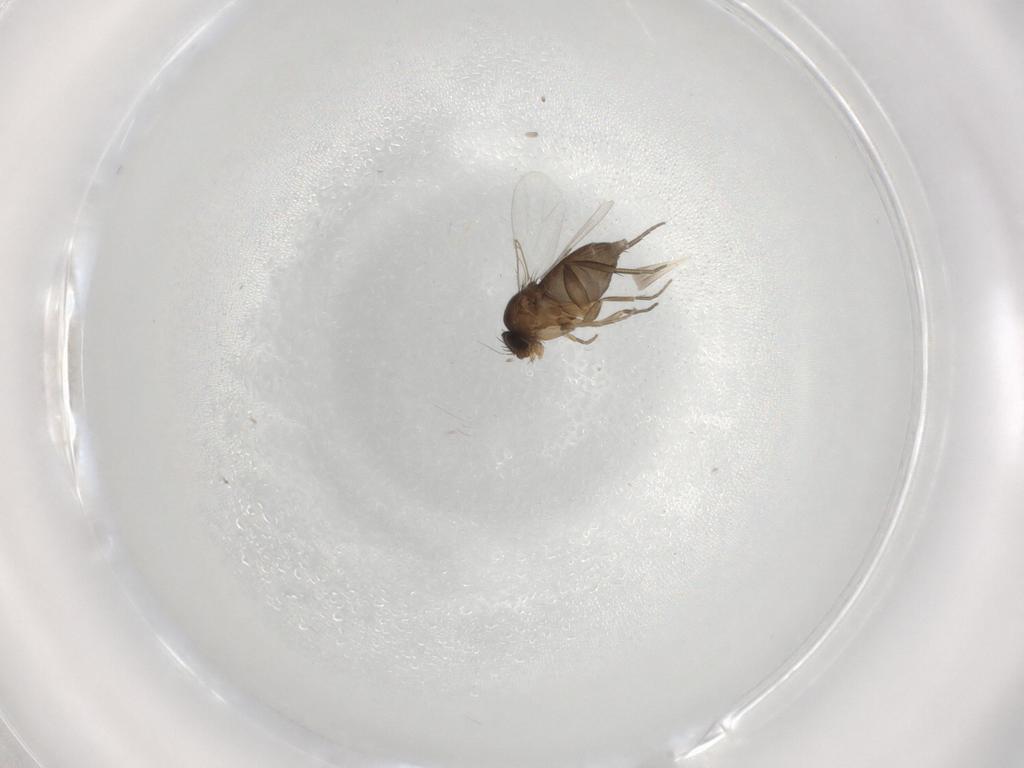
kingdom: Animalia
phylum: Arthropoda
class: Insecta
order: Diptera
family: Phoridae
